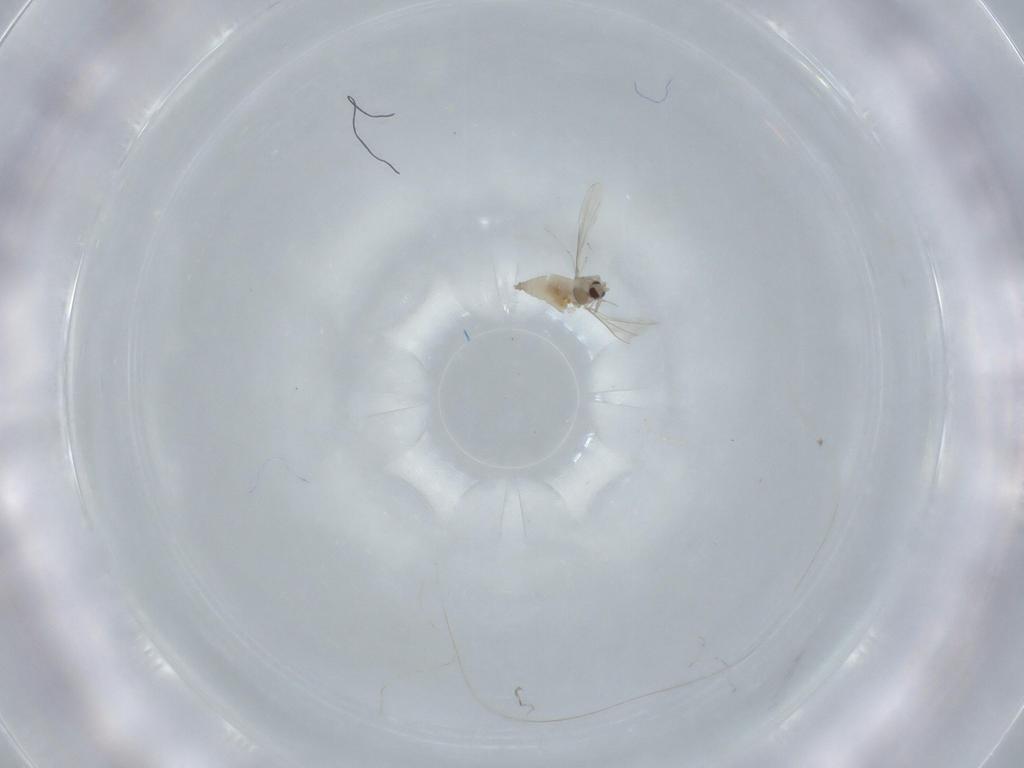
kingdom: Animalia
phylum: Arthropoda
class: Insecta
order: Diptera
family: Cecidomyiidae
